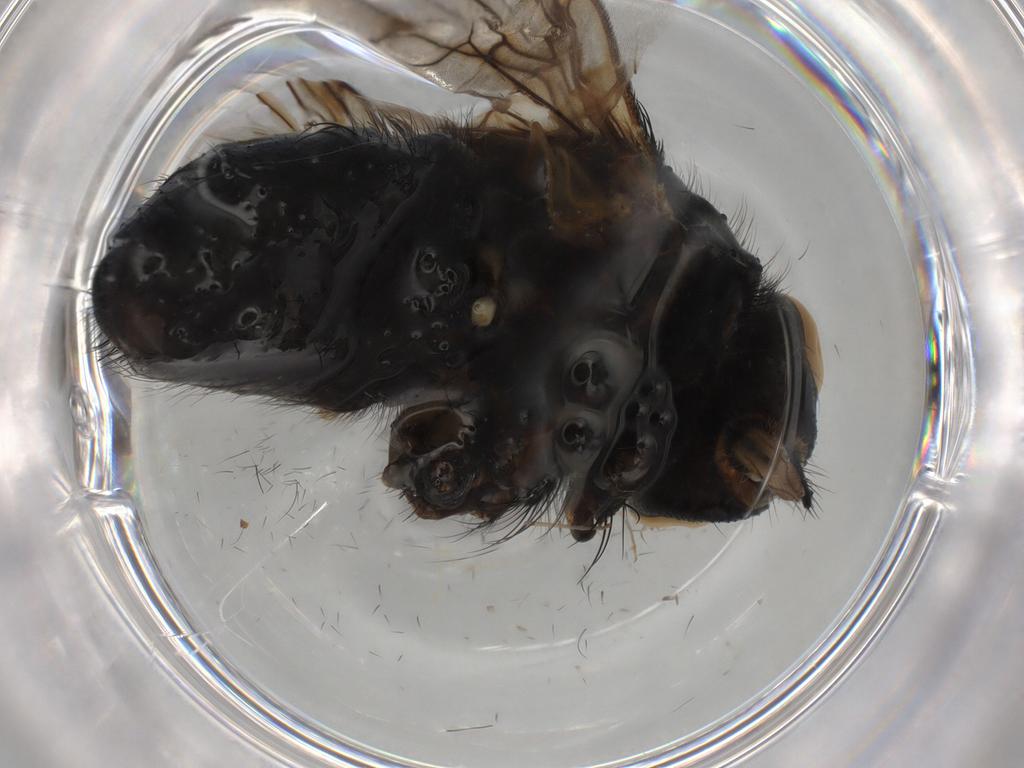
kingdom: Animalia
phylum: Arthropoda
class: Insecta
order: Diptera
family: Muscidae
